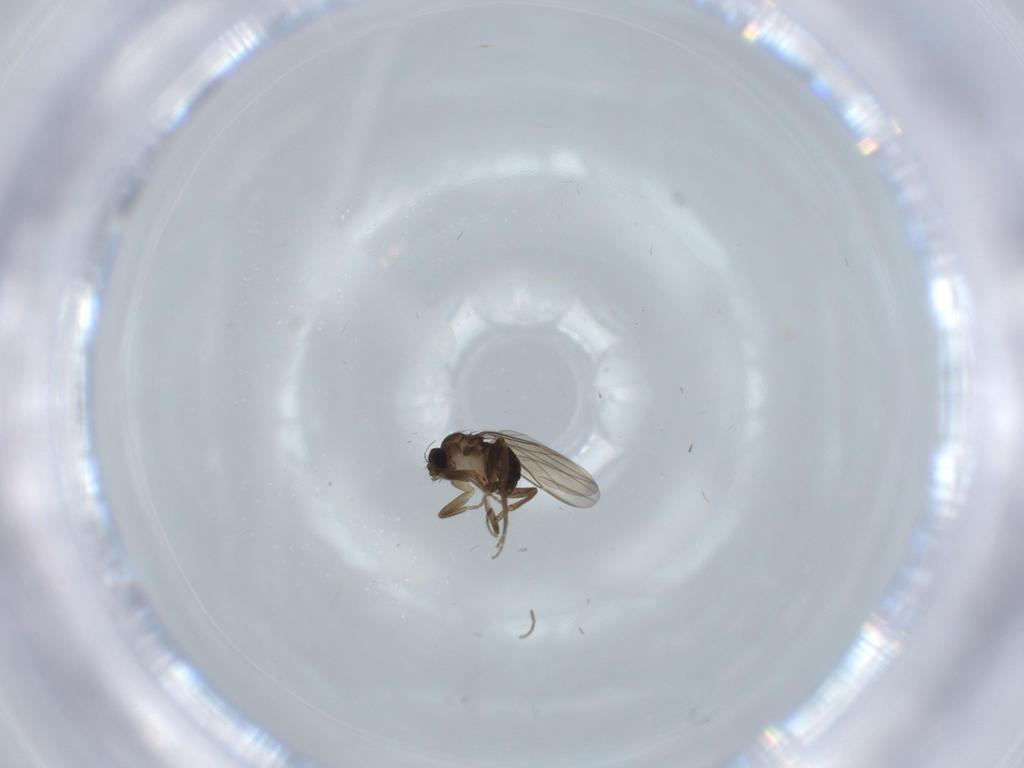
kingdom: Animalia
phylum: Arthropoda
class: Insecta
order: Diptera
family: Phoridae
